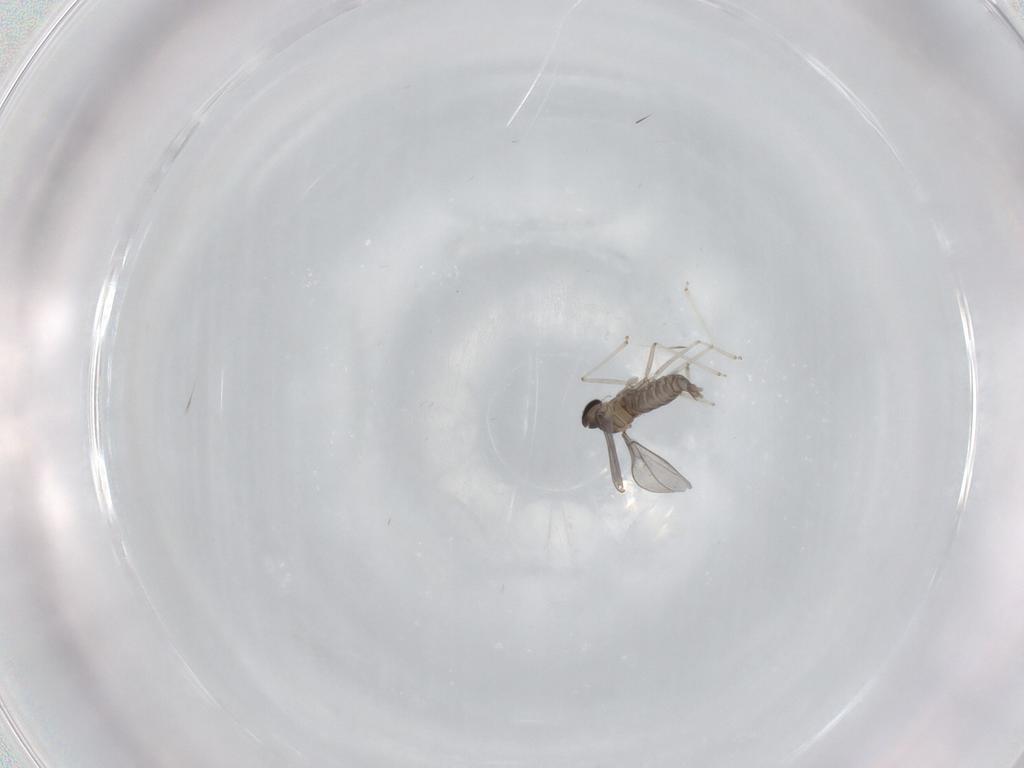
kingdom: Animalia
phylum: Arthropoda
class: Insecta
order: Diptera
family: Cecidomyiidae
